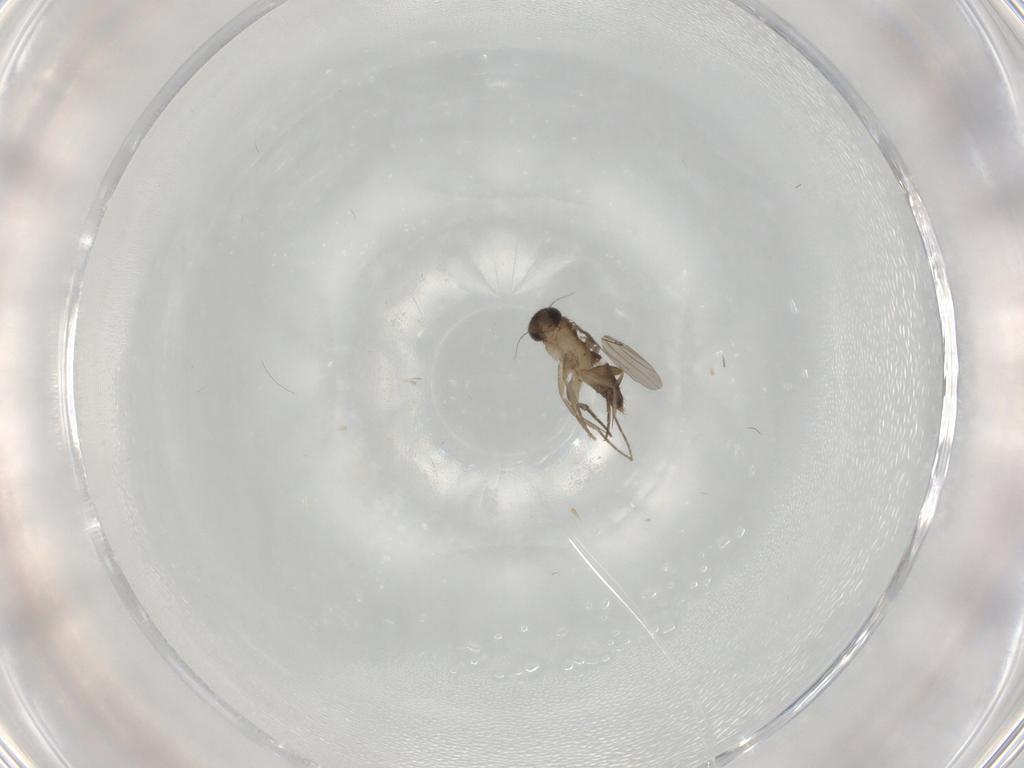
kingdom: Animalia
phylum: Arthropoda
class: Insecta
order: Diptera
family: Phoridae
